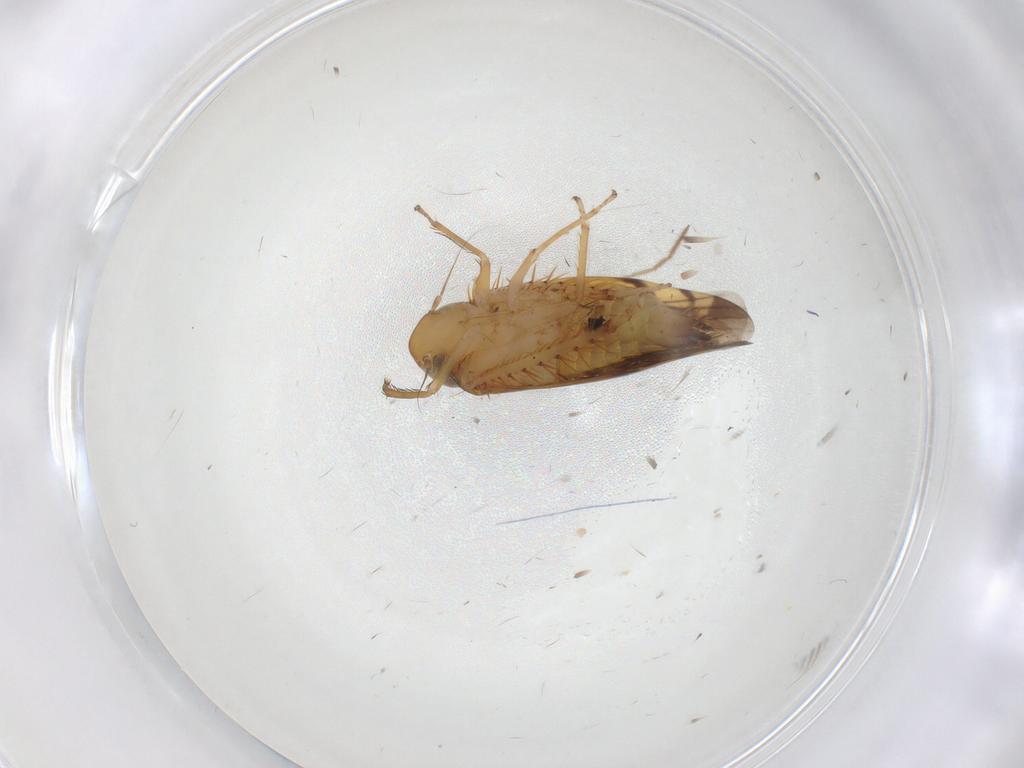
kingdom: Animalia
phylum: Arthropoda
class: Insecta
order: Hemiptera
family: Cicadellidae
